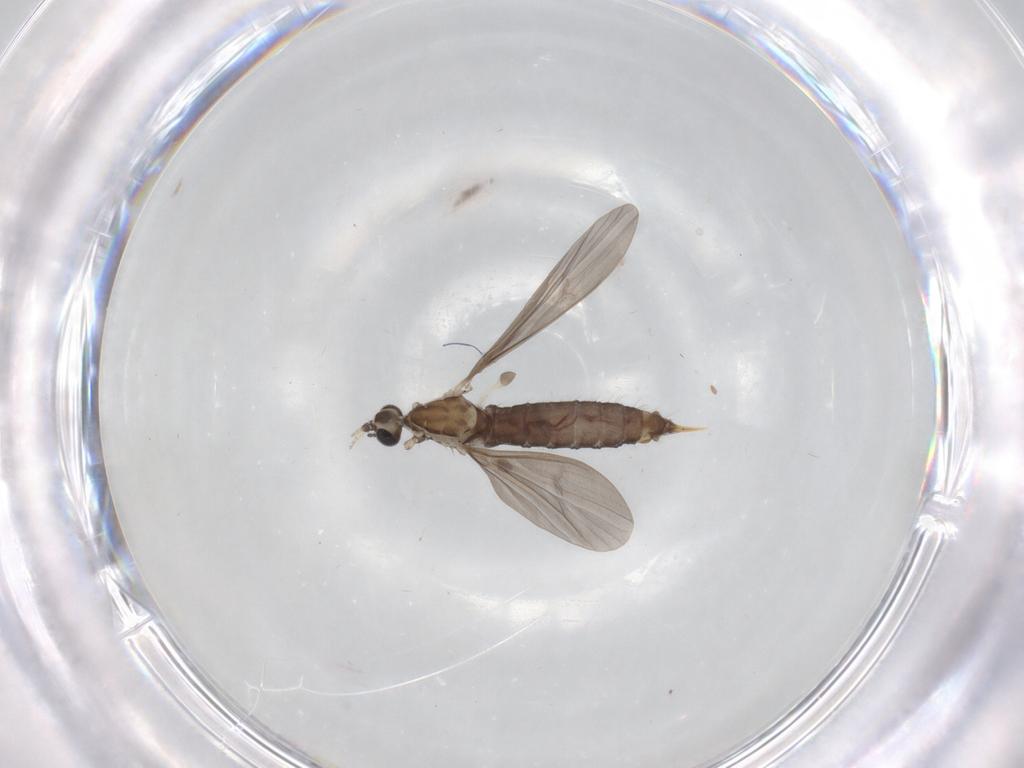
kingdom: Animalia
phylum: Arthropoda
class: Insecta
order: Diptera
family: Limoniidae
